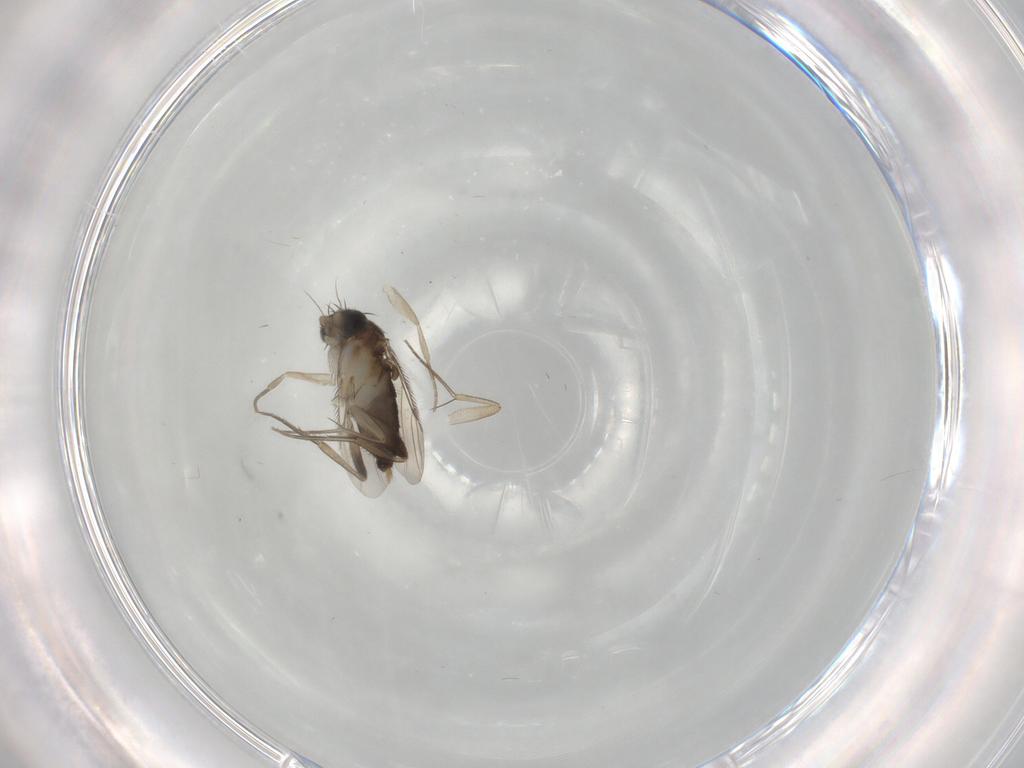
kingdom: Animalia
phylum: Arthropoda
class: Insecta
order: Diptera
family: Phoridae
